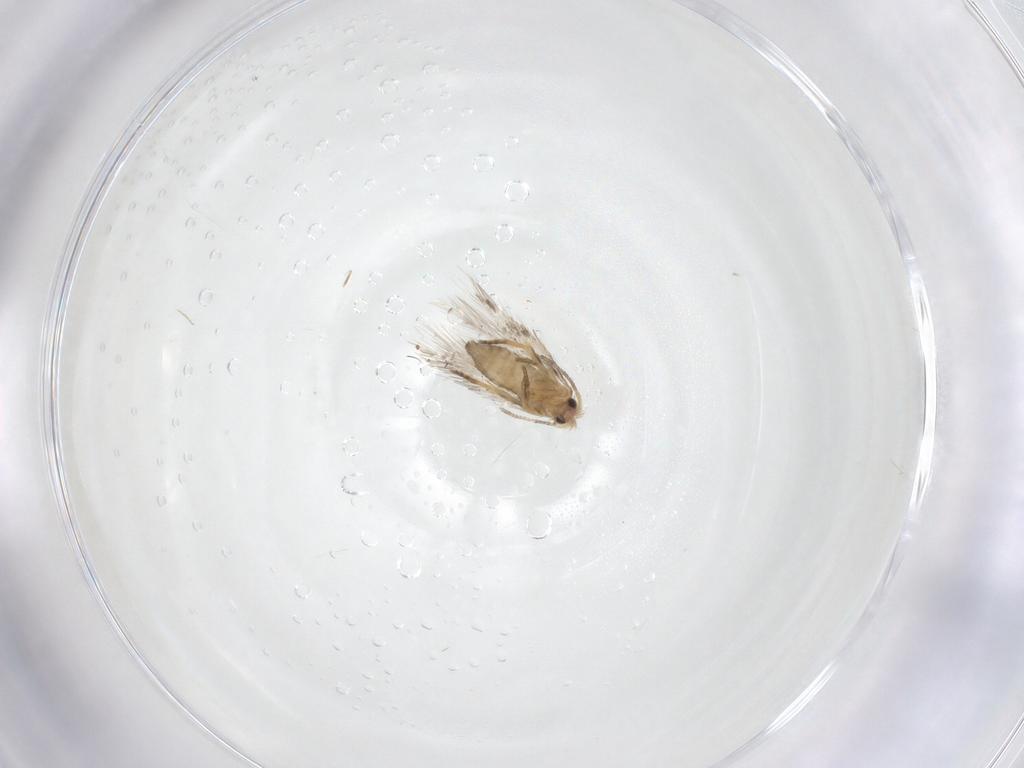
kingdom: Animalia
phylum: Arthropoda
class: Insecta
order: Lepidoptera
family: Nepticulidae
